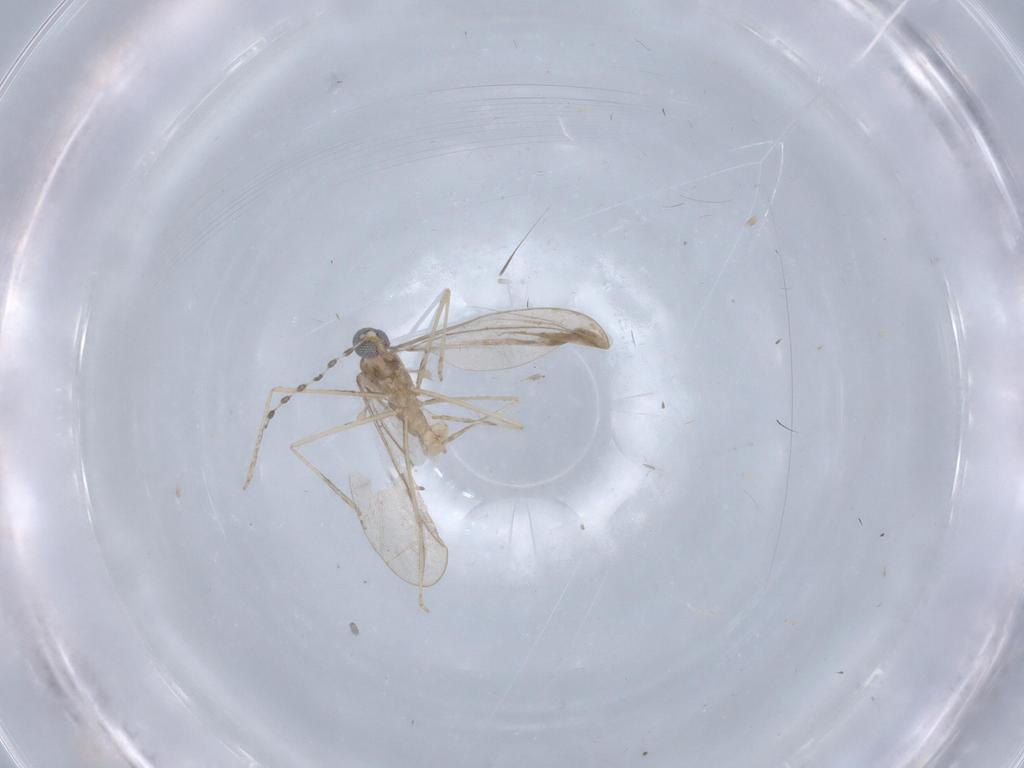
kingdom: Animalia
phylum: Arthropoda
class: Insecta
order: Diptera
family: Cecidomyiidae
